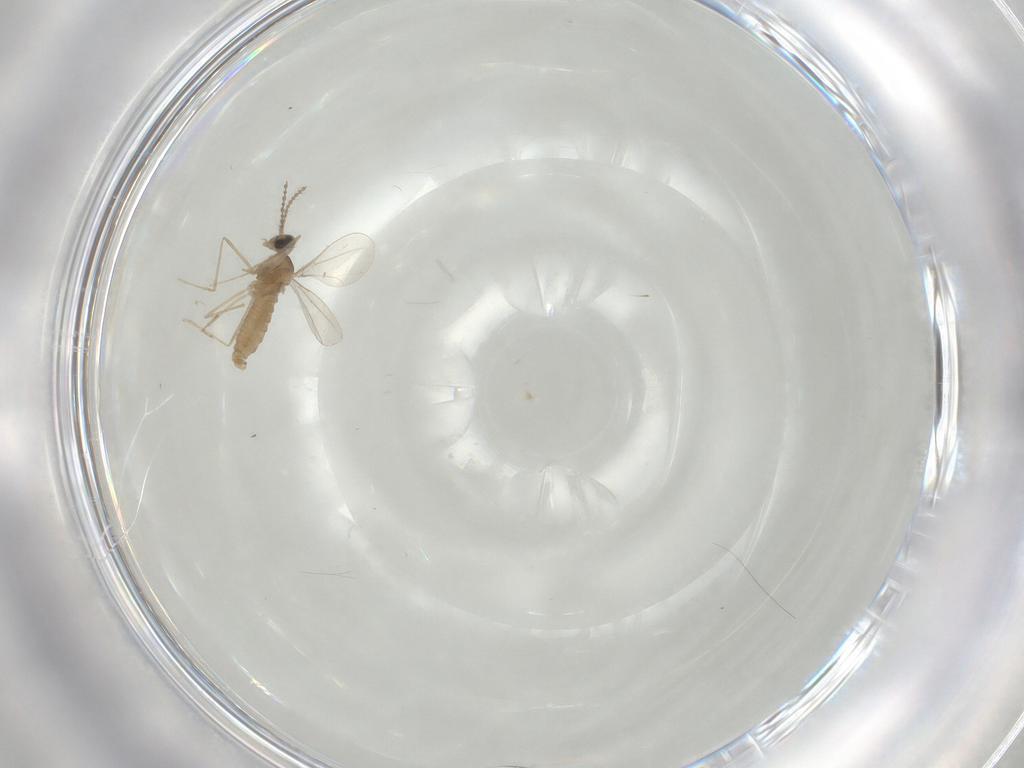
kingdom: Animalia
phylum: Arthropoda
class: Insecta
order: Diptera
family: Cecidomyiidae
